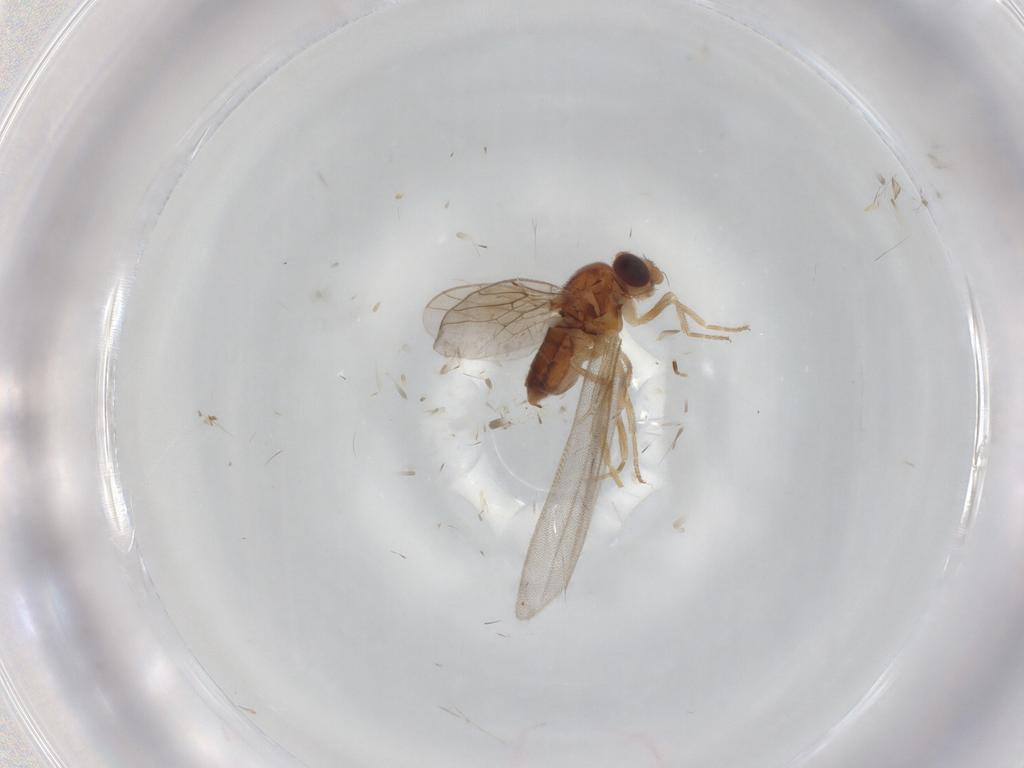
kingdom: Animalia
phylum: Arthropoda
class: Insecta
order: Diptera
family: Chloropidae
